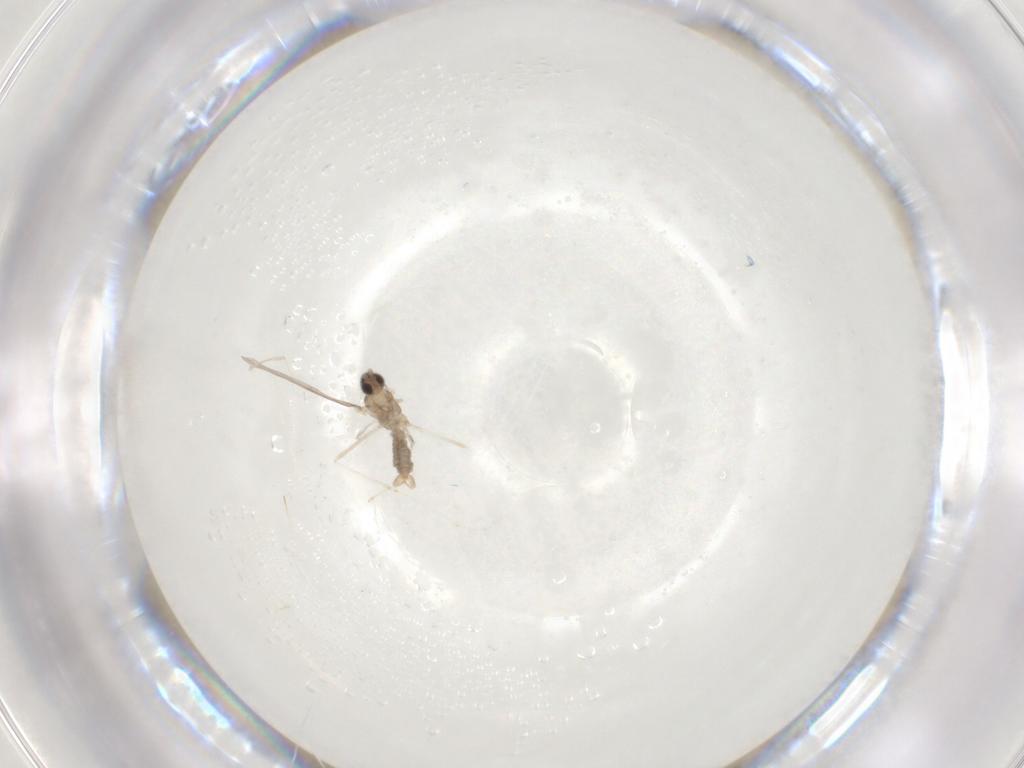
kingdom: Animalia
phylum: Arthropoda
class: Insecta
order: Diptera
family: Cecidomyiidae
